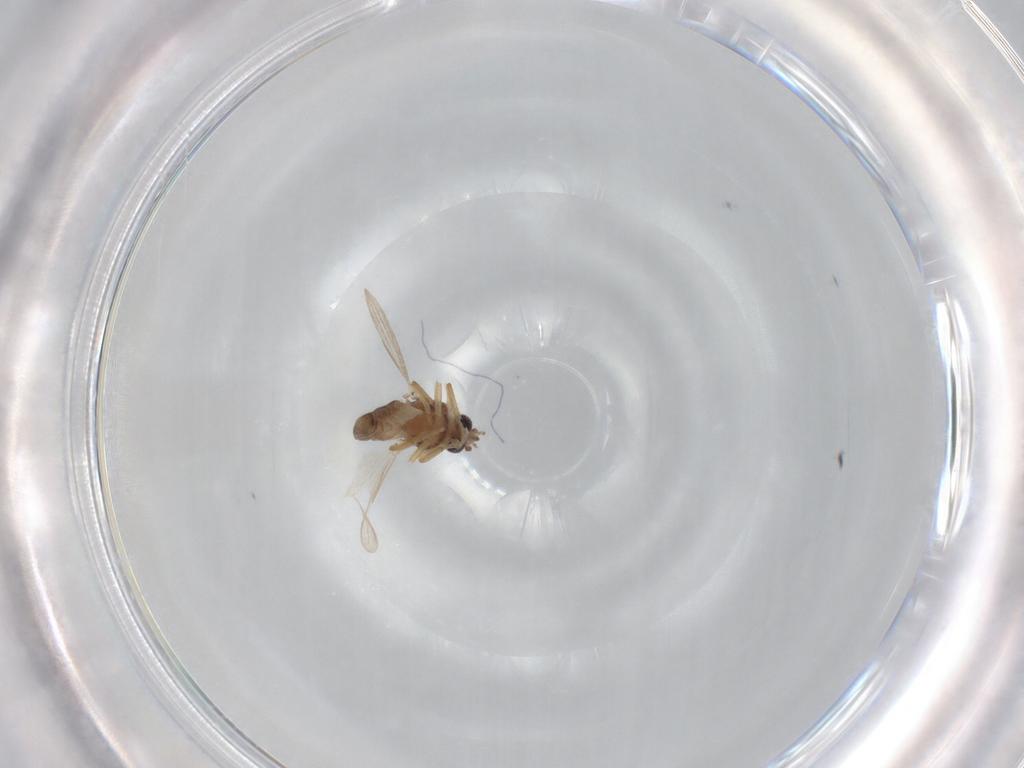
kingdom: Animalia
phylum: Arthropoda
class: Insecta
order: Diptera
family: Ceratopogonidae
